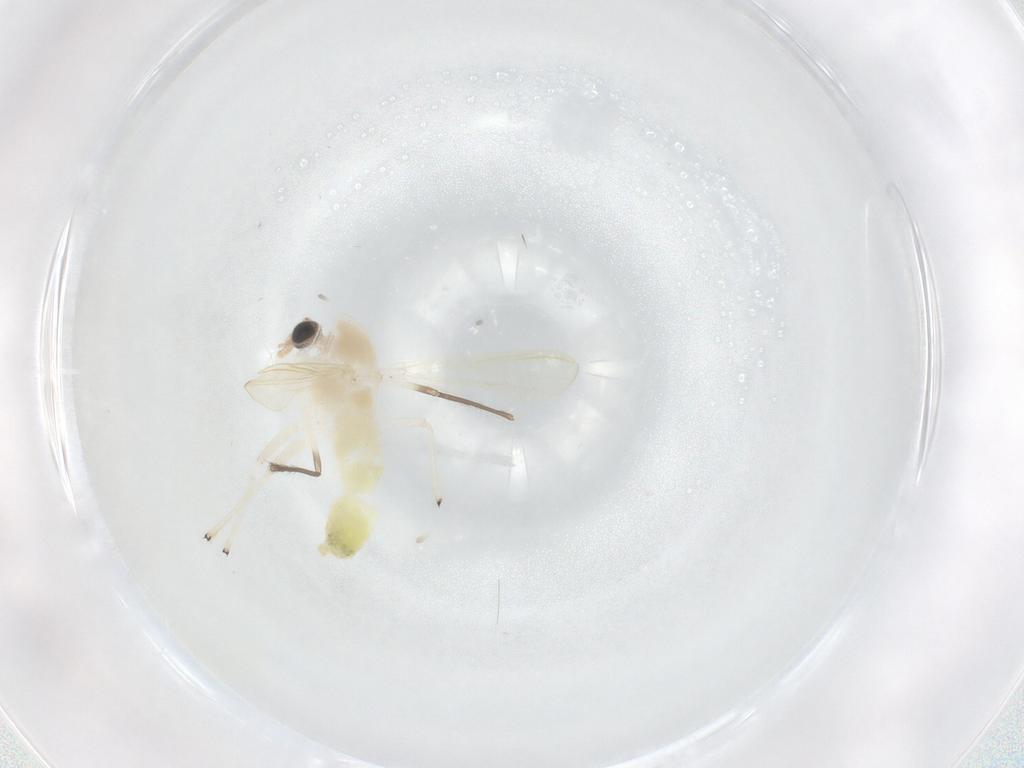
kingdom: Animalia
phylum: Arthropoda
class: Insecta
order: Diptera
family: Chironomidae
